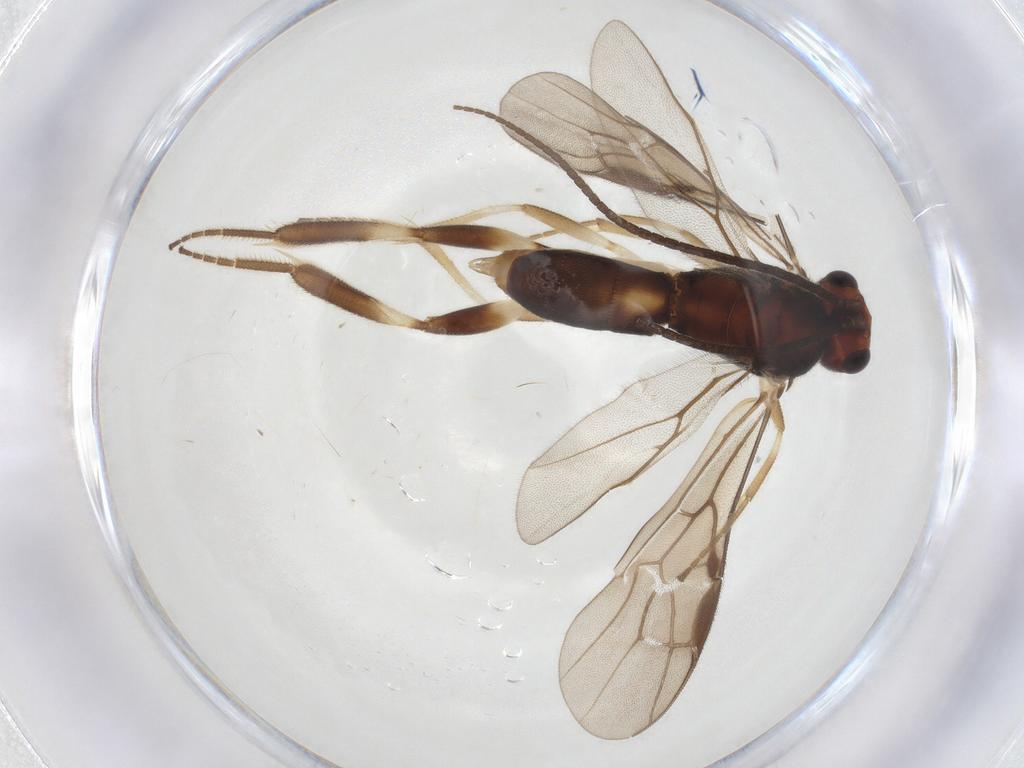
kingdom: Animalia
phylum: Arthropoda
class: Insecta
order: Hymenoptera
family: Braconidae
